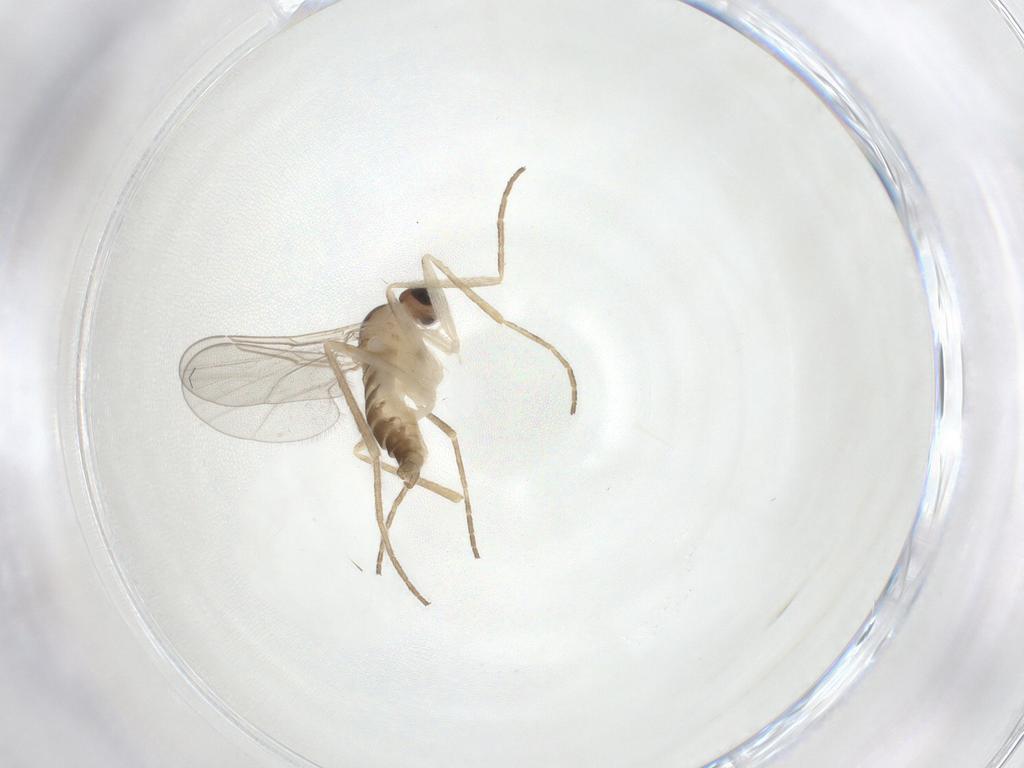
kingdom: Animalia
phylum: Arthropoda
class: Insecta
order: Diptera
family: Cecidomyiidae
